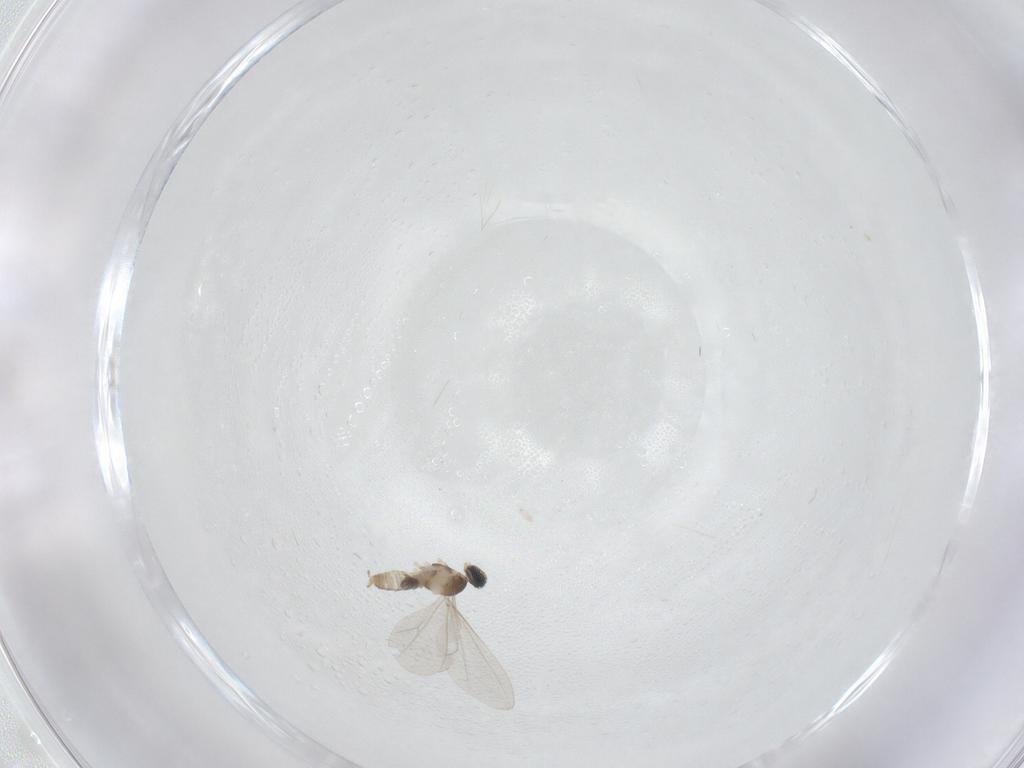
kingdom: Animalia
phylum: Arthropoda
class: Insecta
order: Diptera
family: Cecidomyiidae
